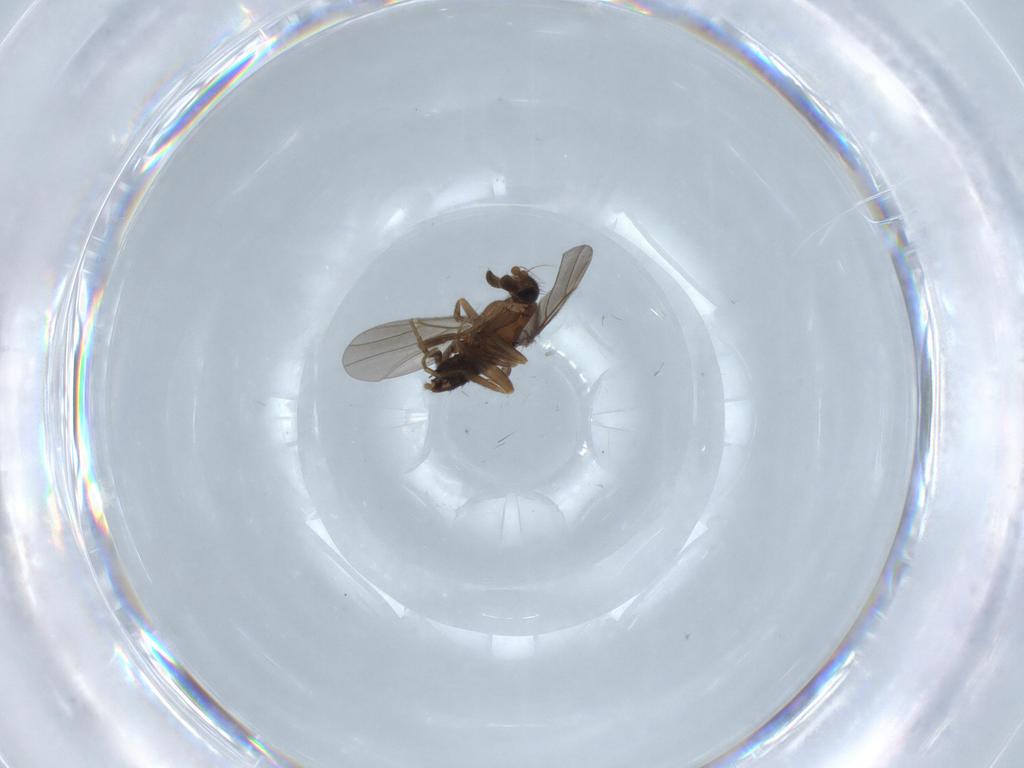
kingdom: Animalia
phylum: Arthropoda
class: Insecta
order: Diptera
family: Phoridae
